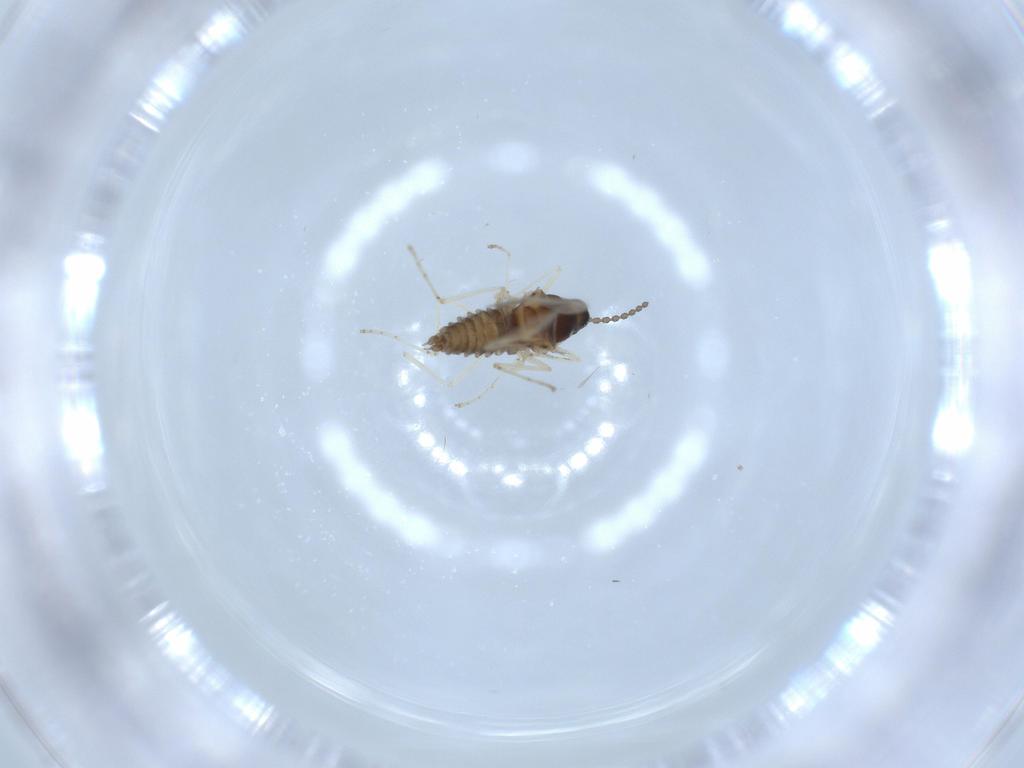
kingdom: Animalia
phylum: Arthropoda
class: Insecta
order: Diptera
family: Cecidomyiidae
